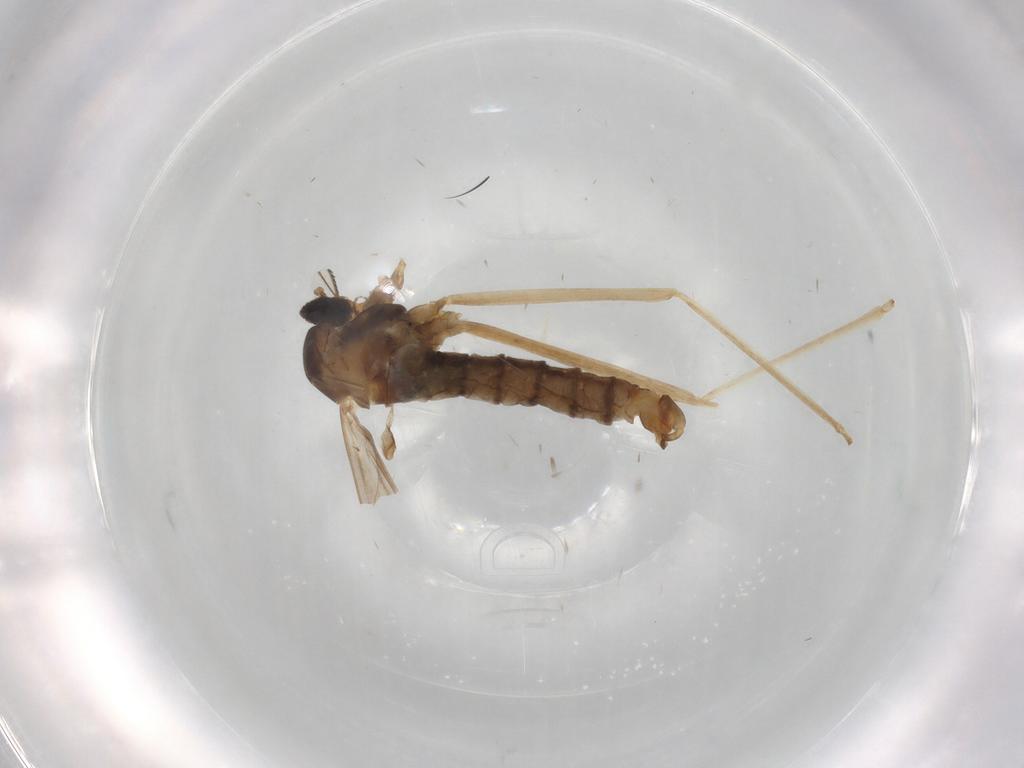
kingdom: Animalia
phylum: Arthropoda
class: Insecta
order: Diptera
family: Cecidomyiidae
